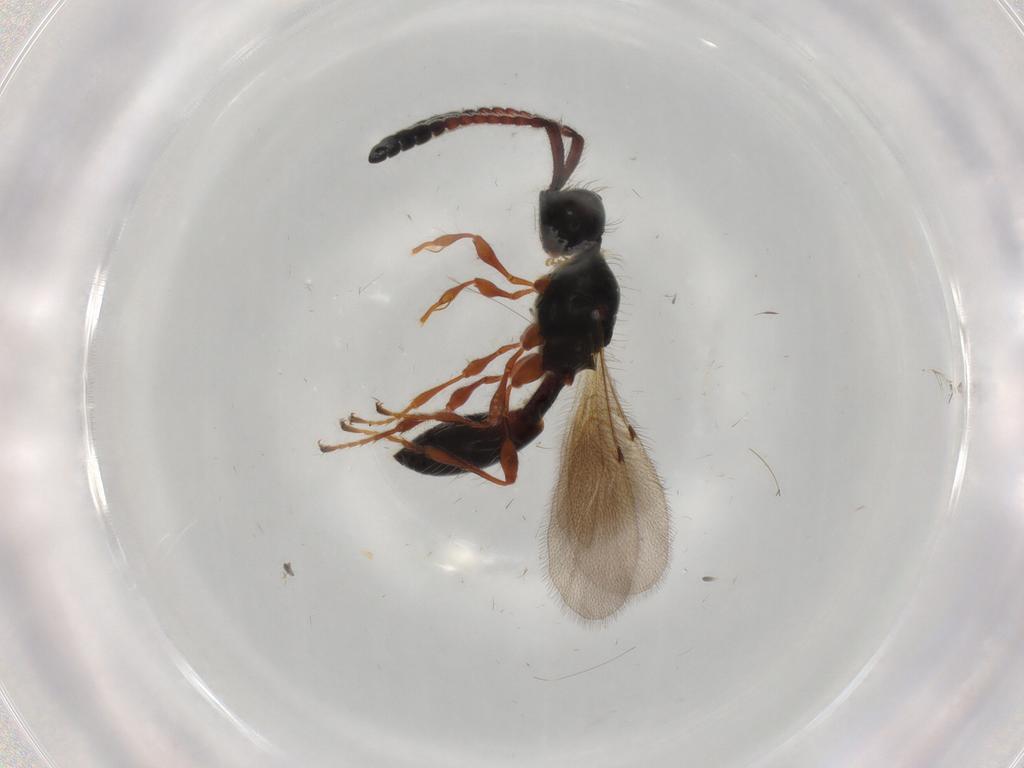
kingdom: Animalia
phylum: Arthropoda
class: Insecta
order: Hymenoptera
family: Diapriidae
